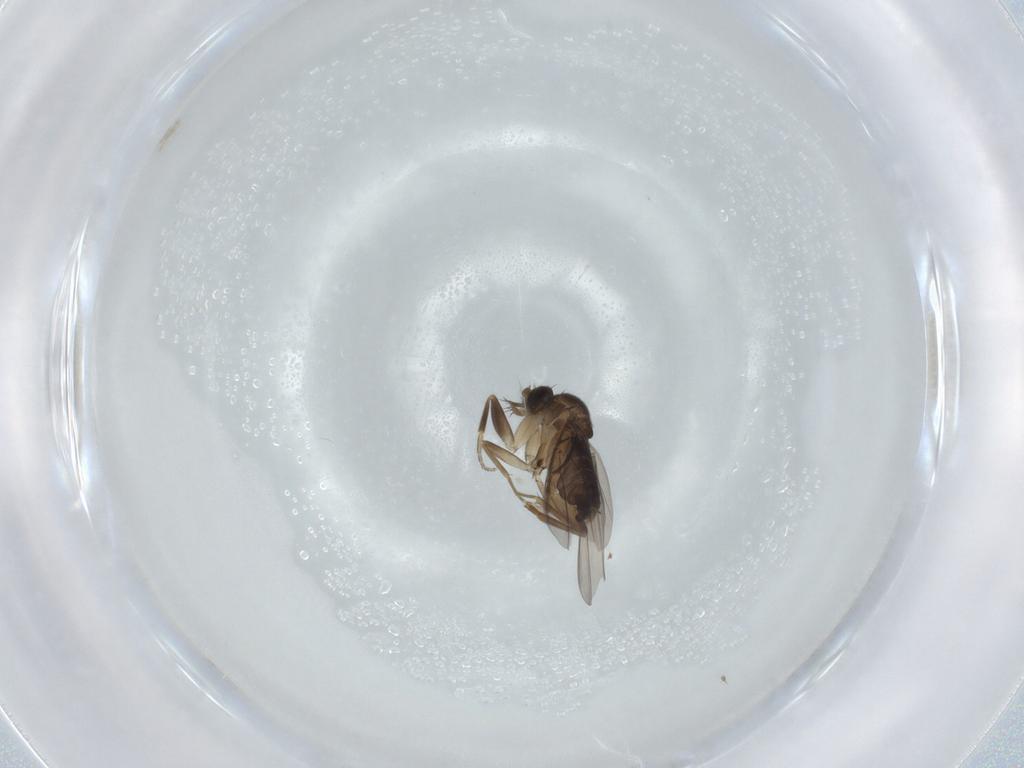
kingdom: Animalia
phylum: Arthropoda
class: Insecta
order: Diptera
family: Phoridae
